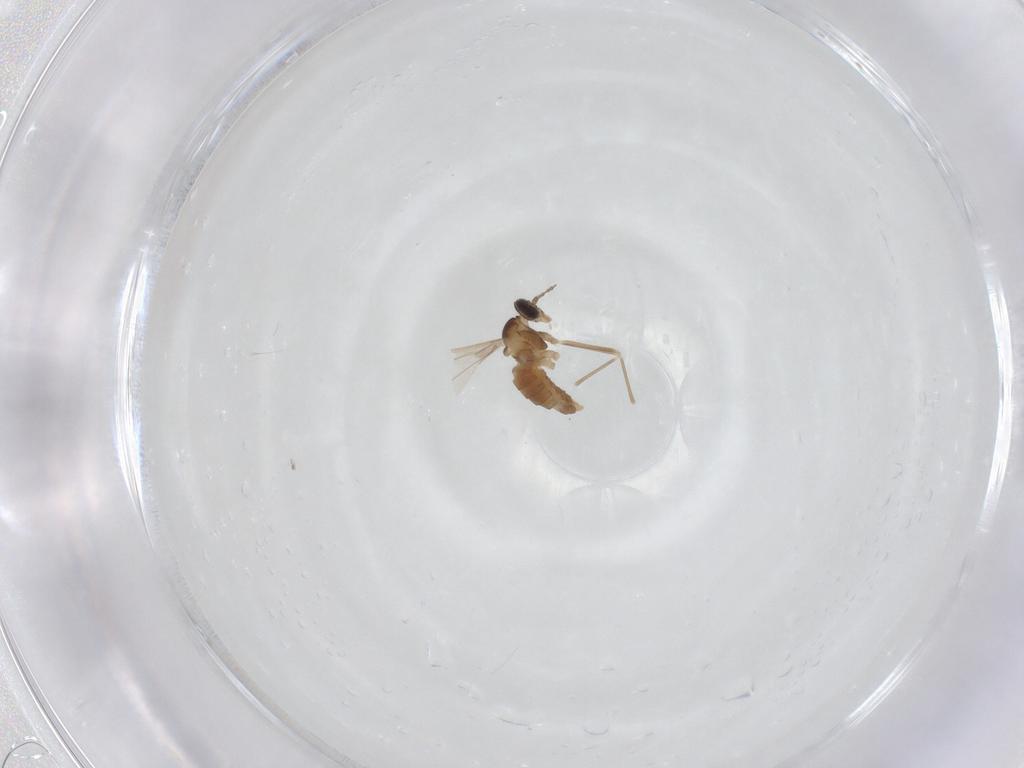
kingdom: Animalia
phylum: Arthropoda
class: Insecta
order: Diptera
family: Cecidomyiidae
